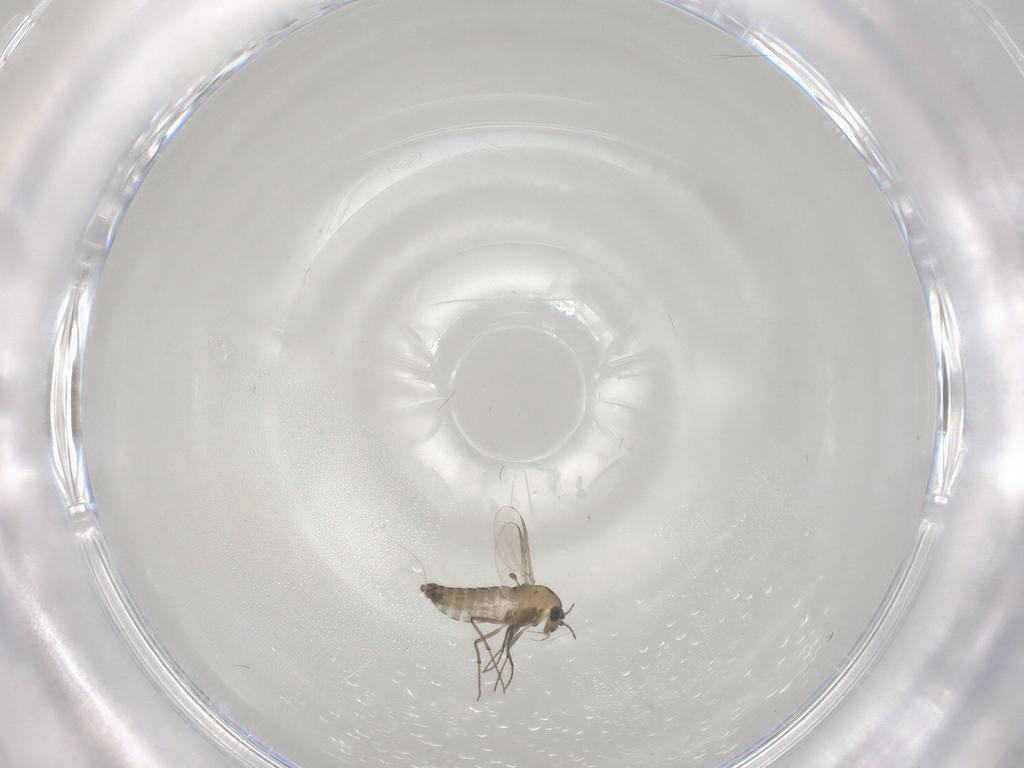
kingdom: Animalia
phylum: Arthropoda
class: Insecta
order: Diptera
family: Chironomidae
